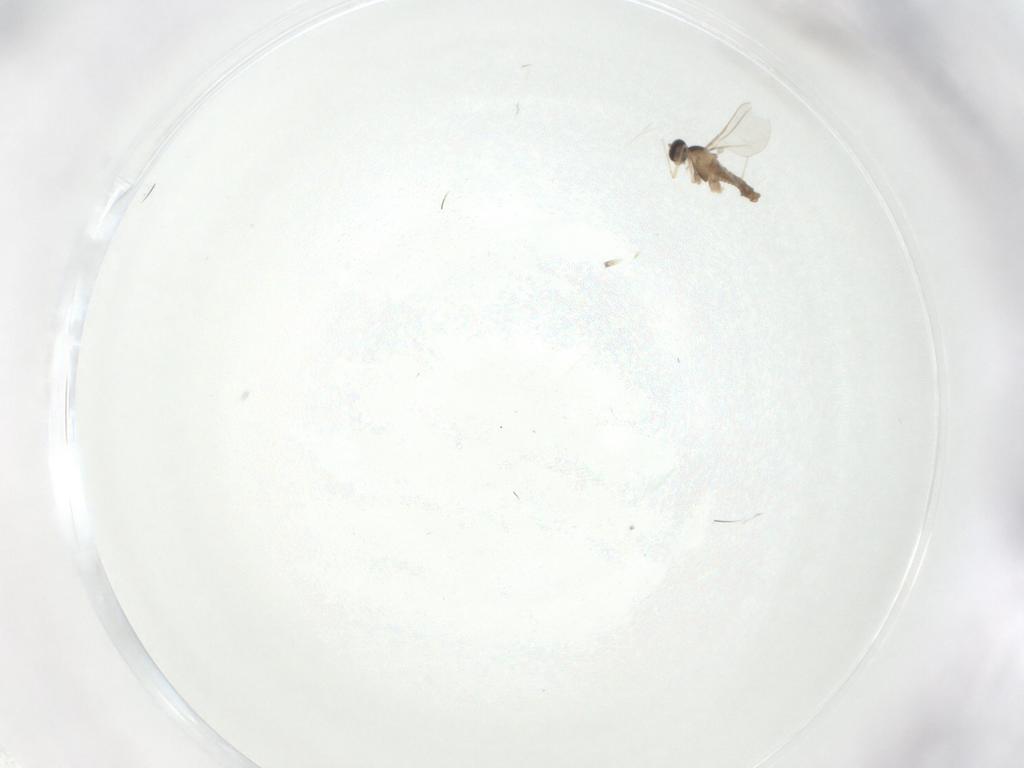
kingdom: Animalia
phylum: Arthropoda
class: Insecta
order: Diptera
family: Cecidomyiidae
